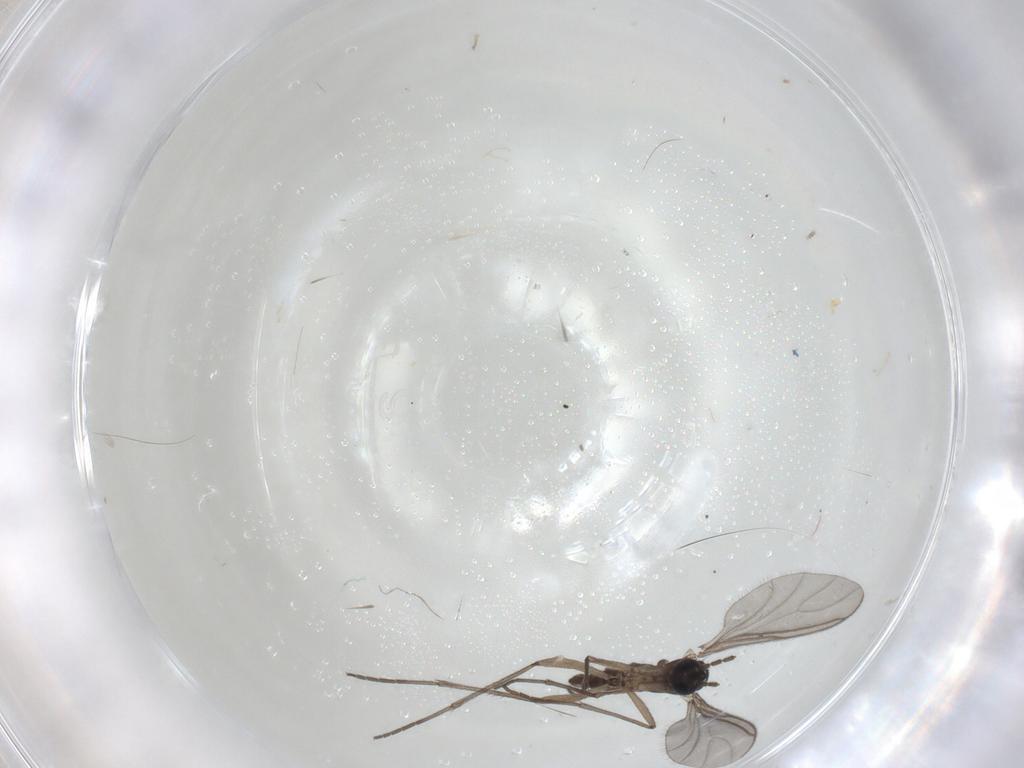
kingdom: Animalia
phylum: Arthropoda
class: Insecta
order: Diptera
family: Sciaridae
